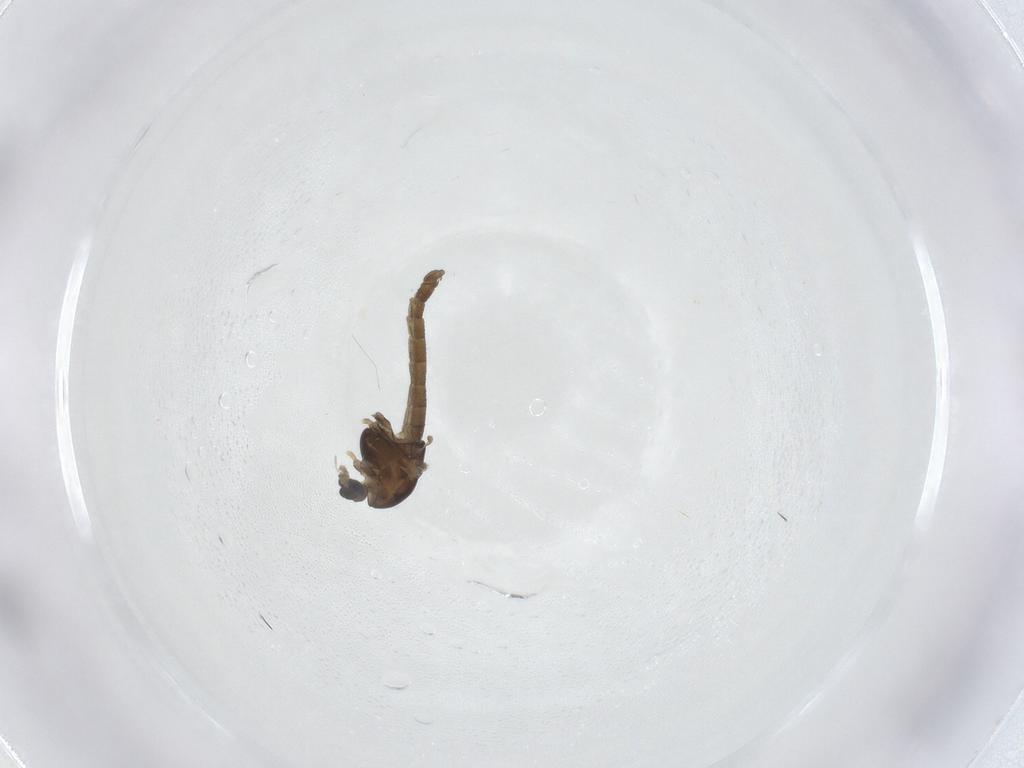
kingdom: Animalia
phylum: Arthropoda
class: Insecta
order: Diptera
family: Chironomidae
